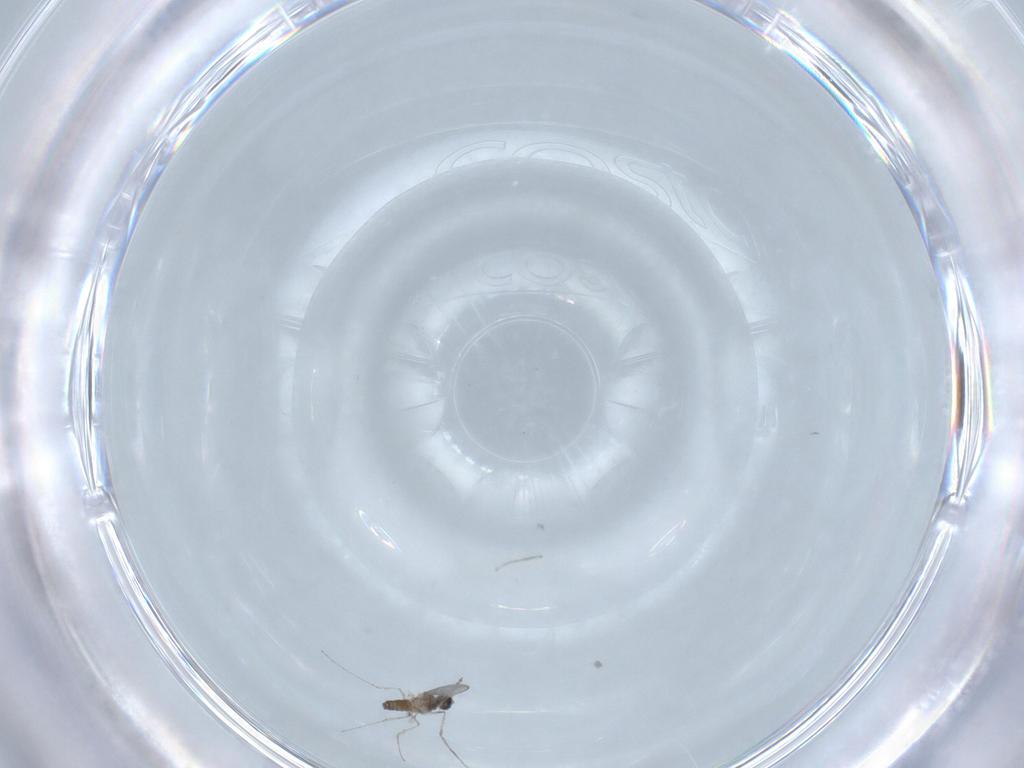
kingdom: Animalia
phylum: Arthropoda
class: Insecta
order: Diptera
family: Cecidomyiidae
